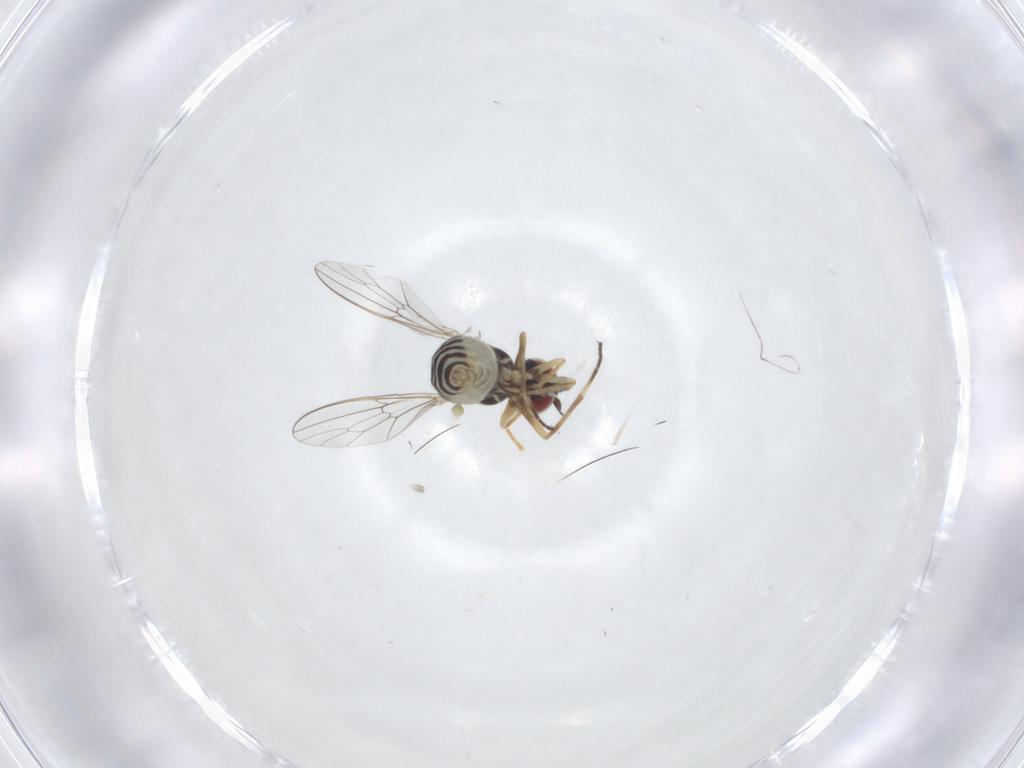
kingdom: Animalia
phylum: Arthropoda
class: Insecta
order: Diptera
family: Bombyliidae
